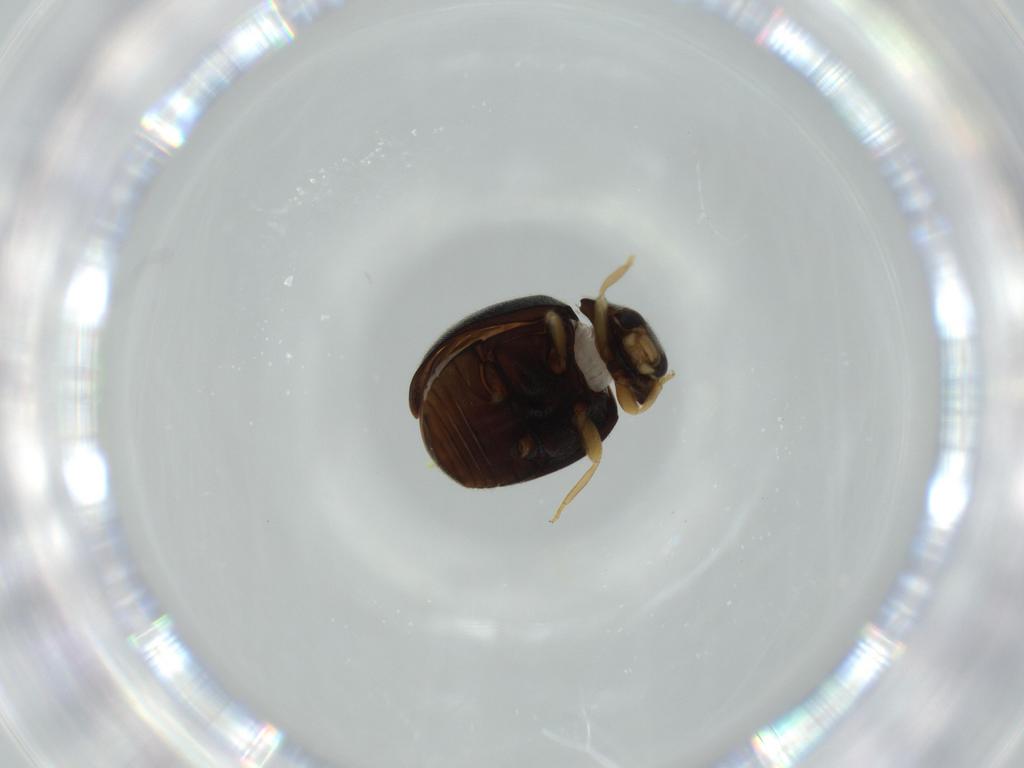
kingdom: Animalia
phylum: Arthropoda
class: Insecta
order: Coleoptera
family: Coccinellidae
